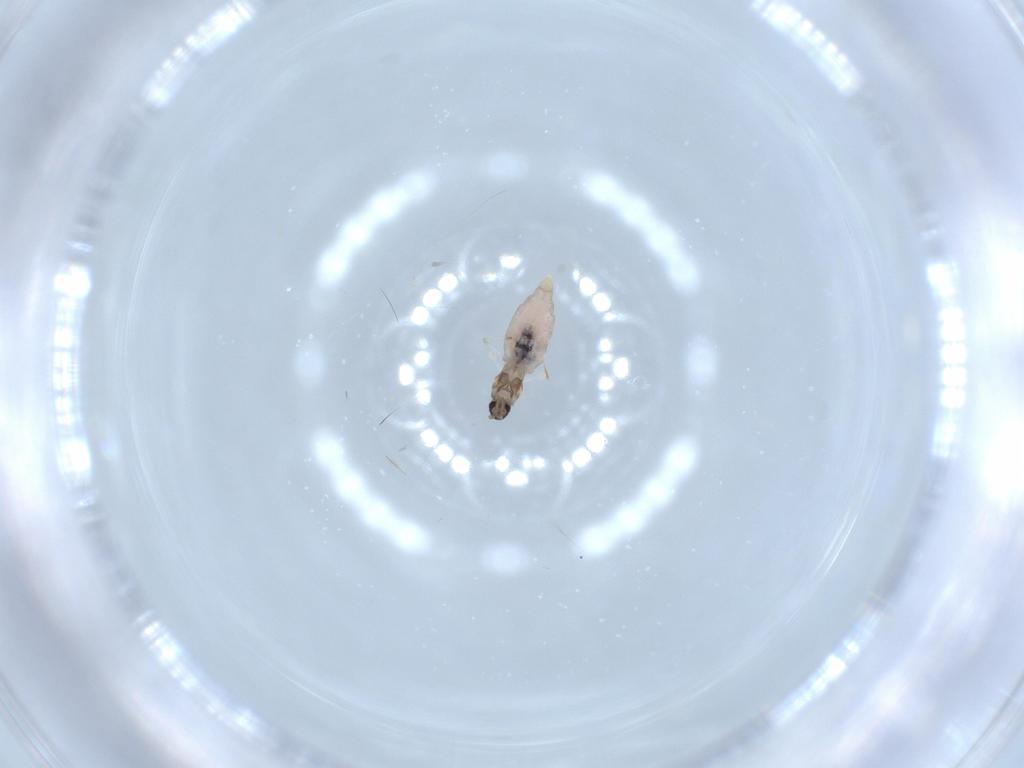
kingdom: Animalia
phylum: Arthropoda
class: Insecta
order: Diptera
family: Cecidomyiidae
